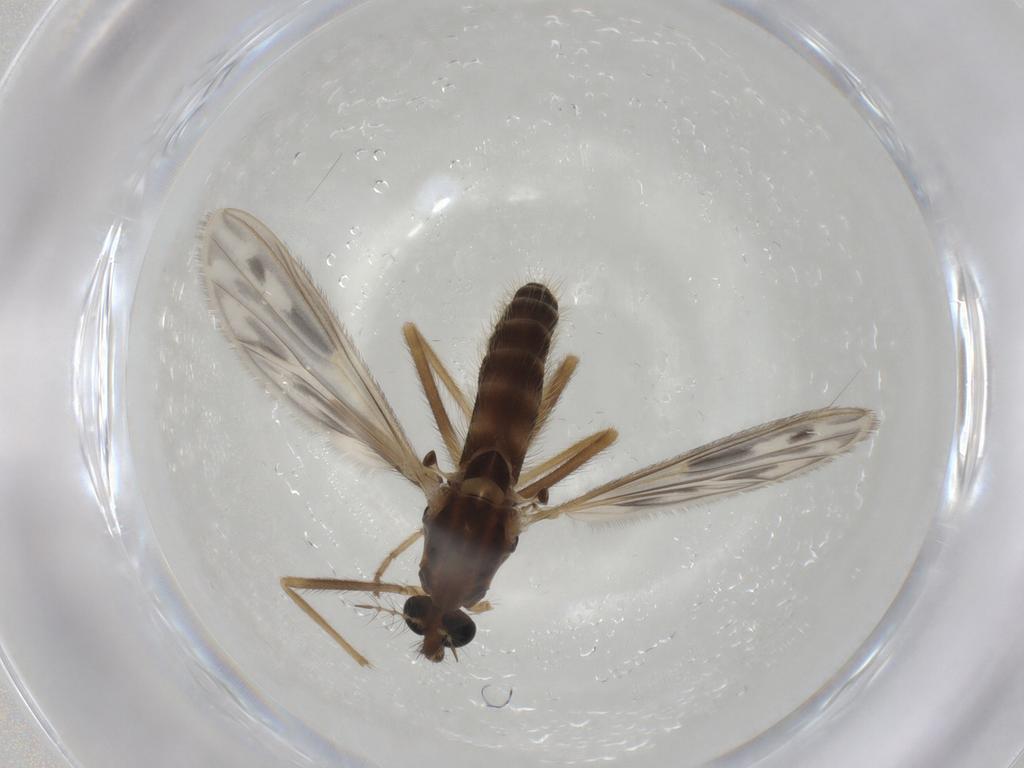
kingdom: Animalia
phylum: Arthropoda
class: Insecta
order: Diptera
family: Chironomidae
